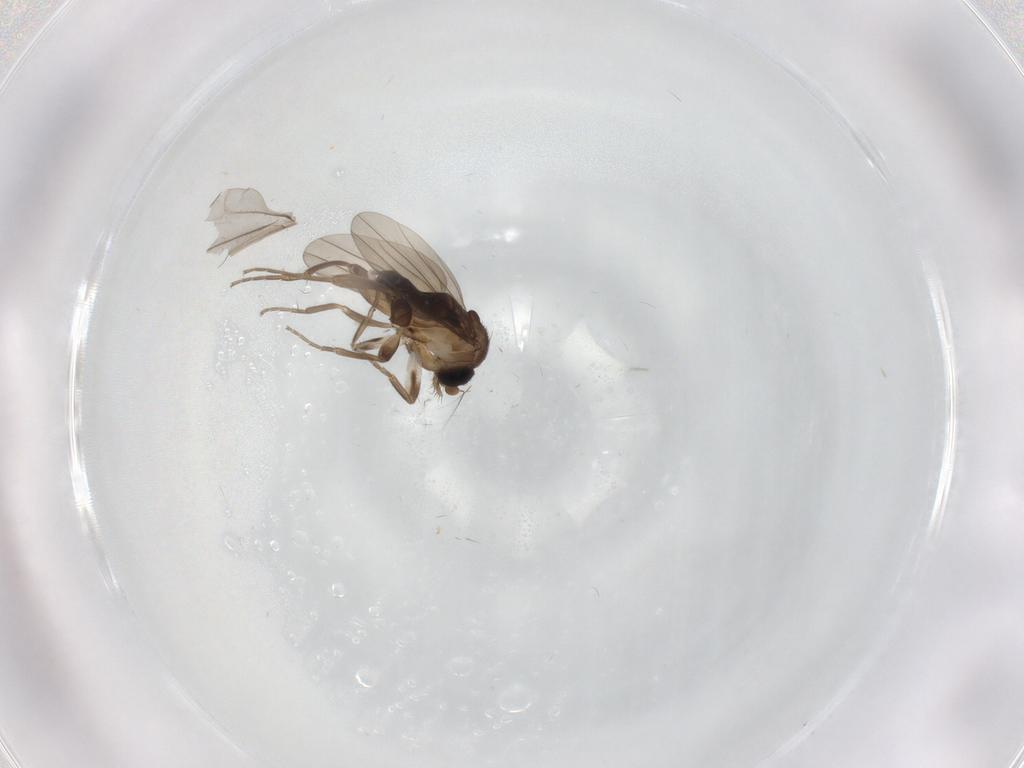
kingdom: Animalia
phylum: Arthropoda
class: Insecta
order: Diptera
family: Cecidomyiidae
